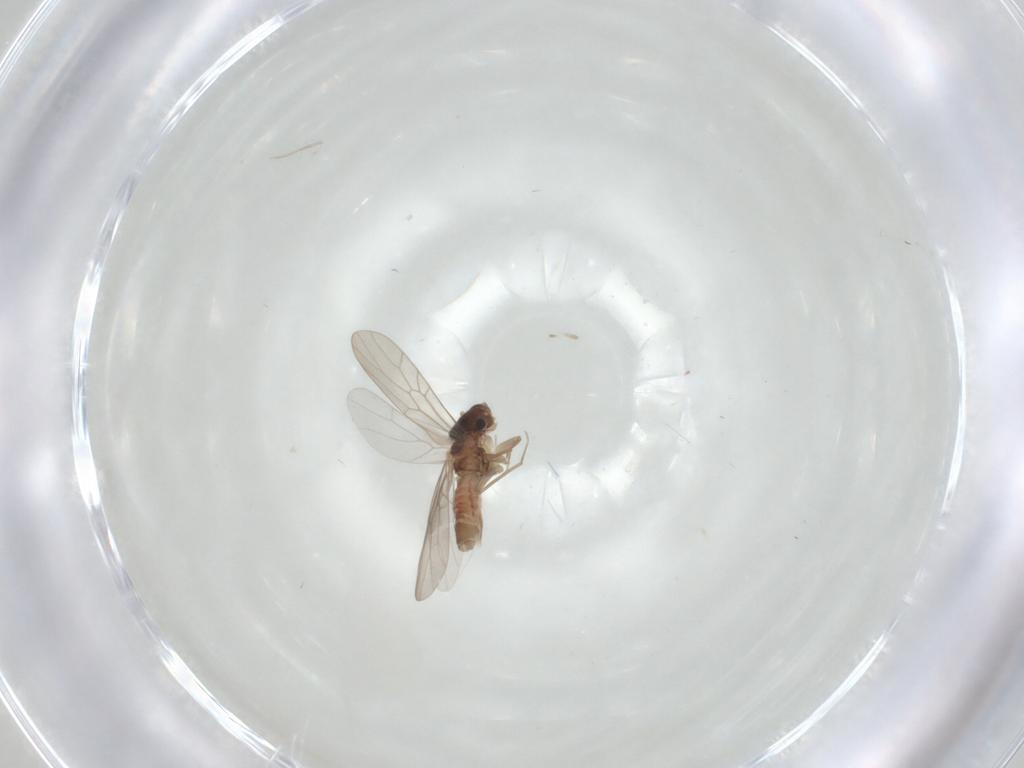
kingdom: Animalia
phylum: Arthropoda
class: Insecta
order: Psocodea
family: Lepidopsocidae
